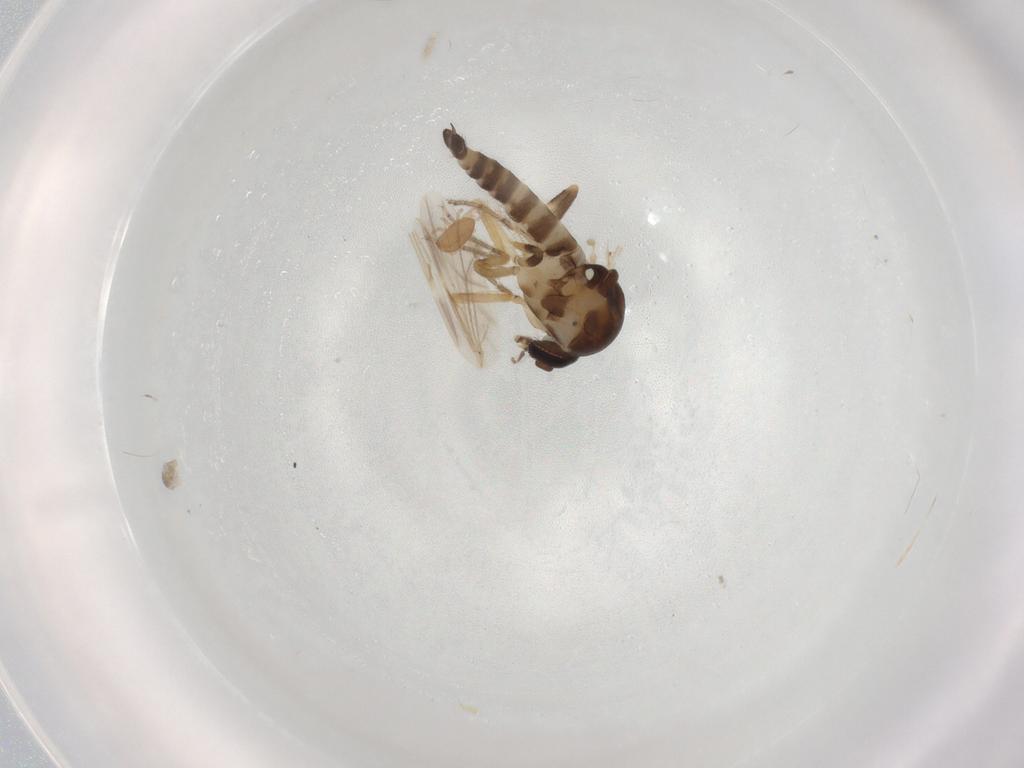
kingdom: Animalia
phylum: Arthropoda
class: Insecta
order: Diptera
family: Ceratopogonidae
